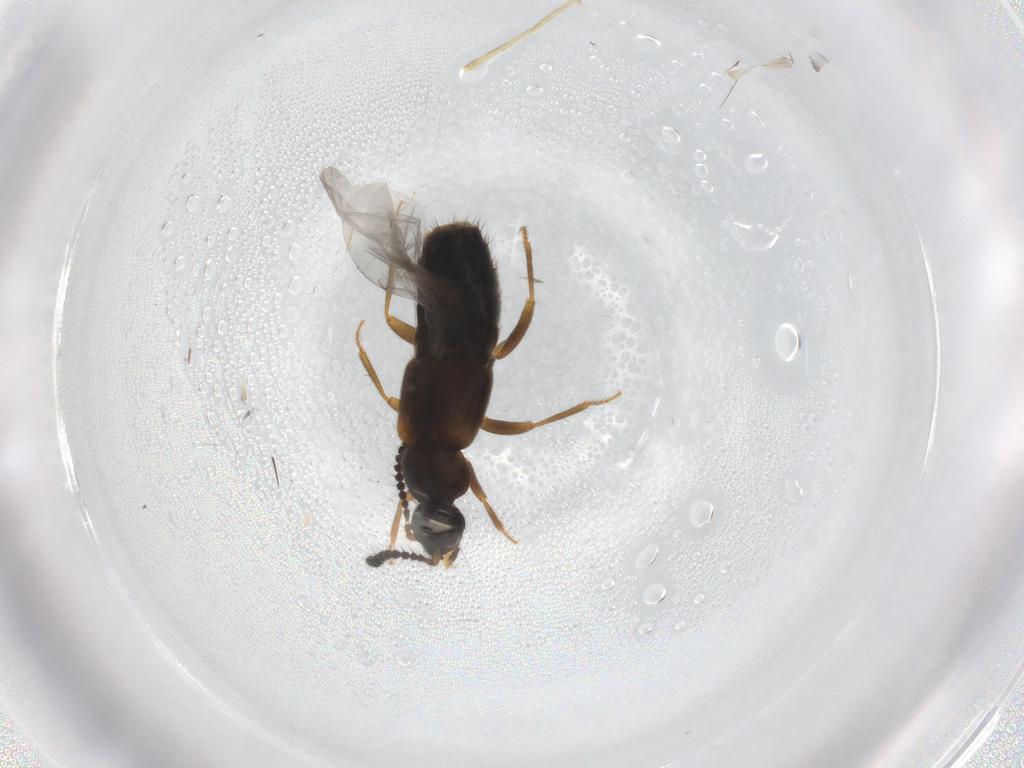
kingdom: Animalia
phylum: Arthropoda
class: Insecta
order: Coleoptera
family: Staphylinidae
